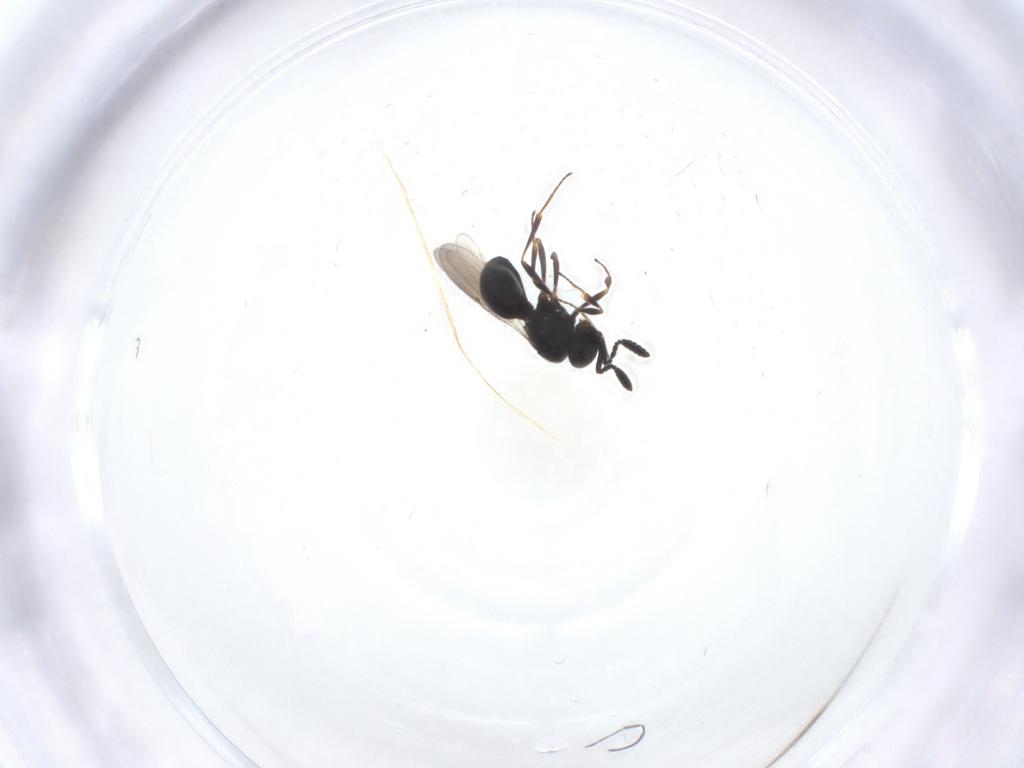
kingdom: Animalia
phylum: Arthropoda
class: Insecta
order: Hymenoptera
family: Scelionidae
